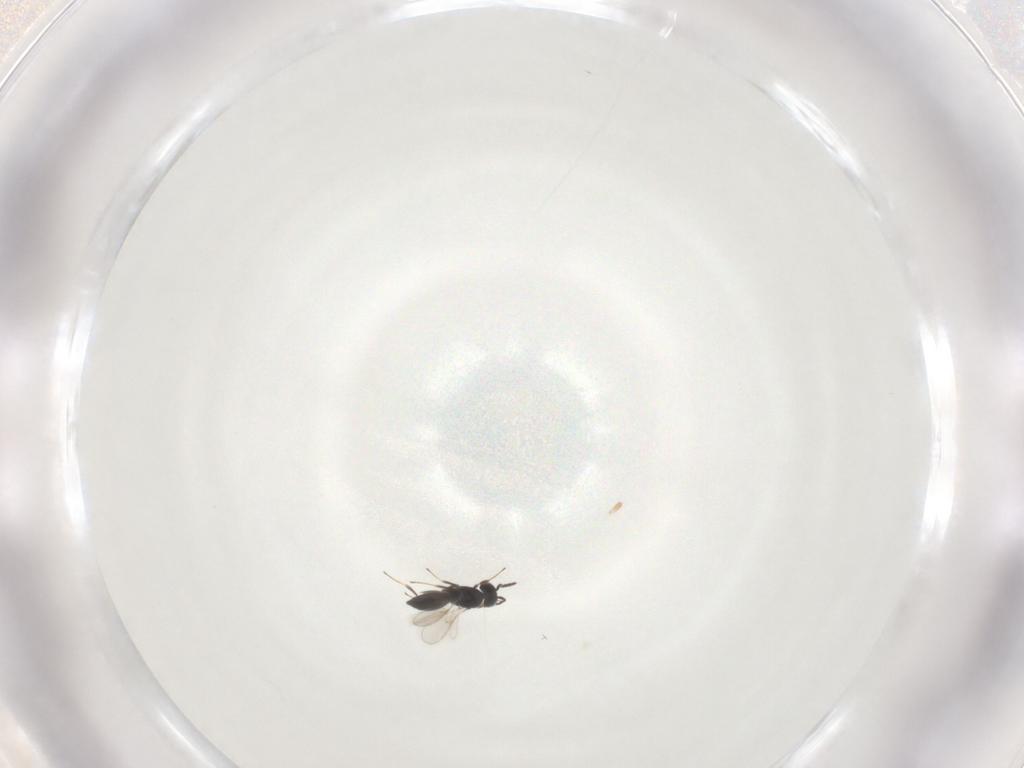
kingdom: Animalia
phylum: Arthropoda
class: Insecta
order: Hymenoptera
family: Scelionidae
